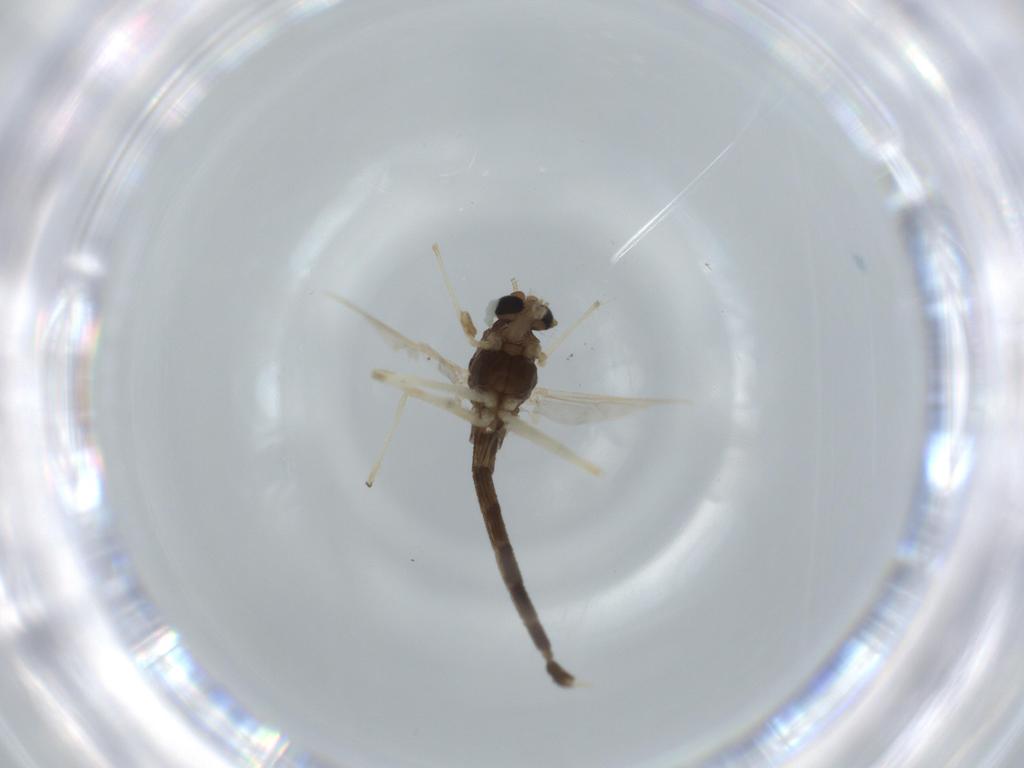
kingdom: Animalia
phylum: Arthropoda
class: Insecta
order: Diptera
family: Chironomidae
